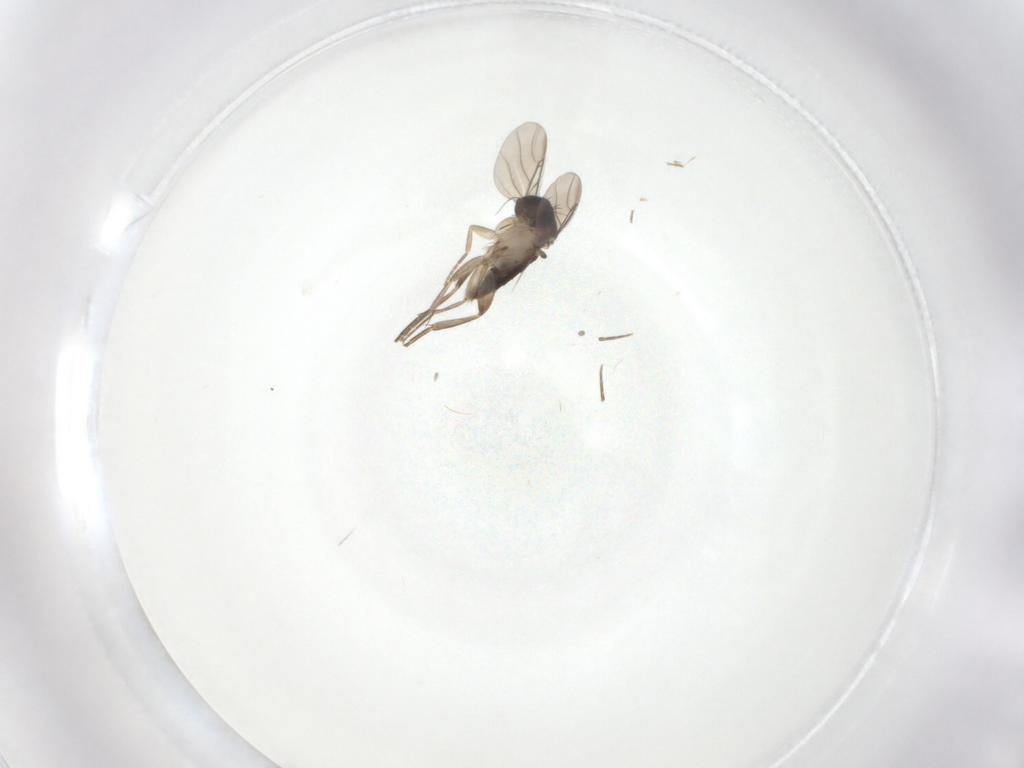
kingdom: Animalia
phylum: Arthropoda
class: Insecta
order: Diptera
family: Phoridae
